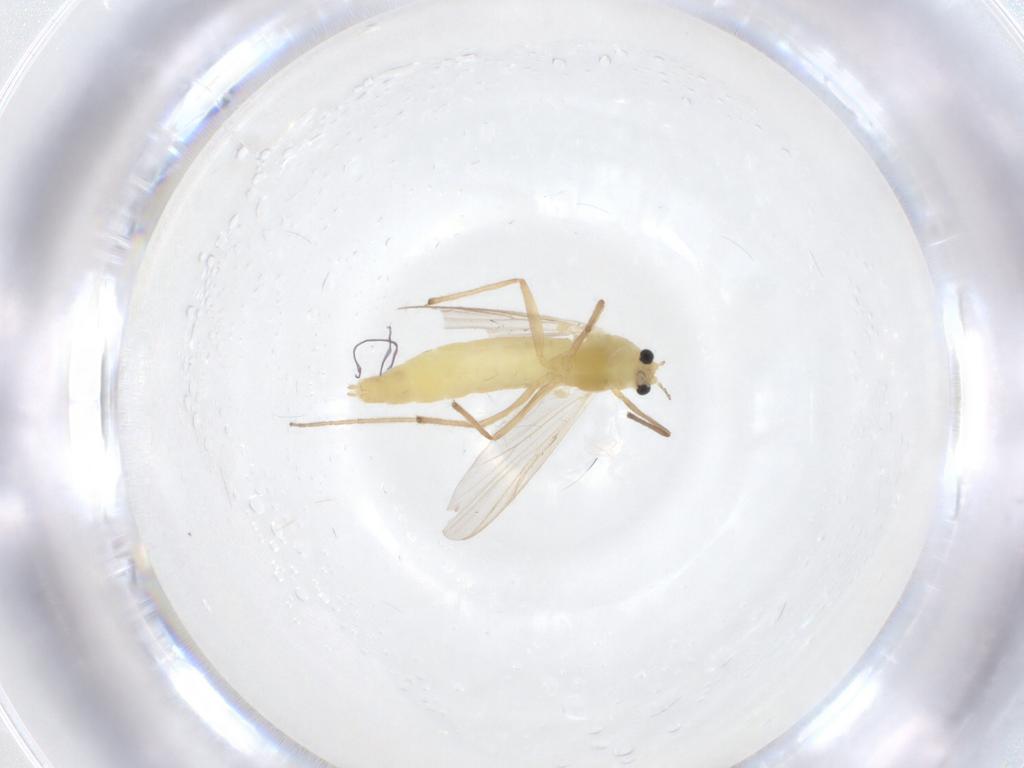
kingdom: Animalia
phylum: Arthropoda
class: Insecta
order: Diptera
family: Chironomidae
